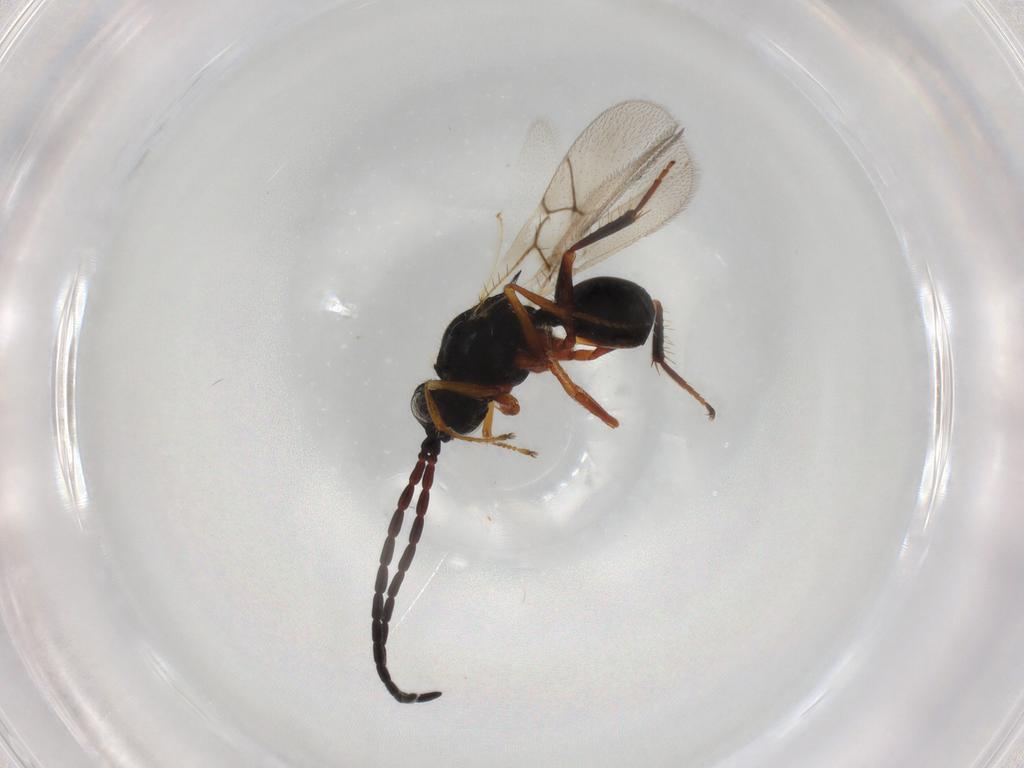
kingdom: Animalia
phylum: Arthropoda
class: Insecta
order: Hymenoptera
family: Figitidae
